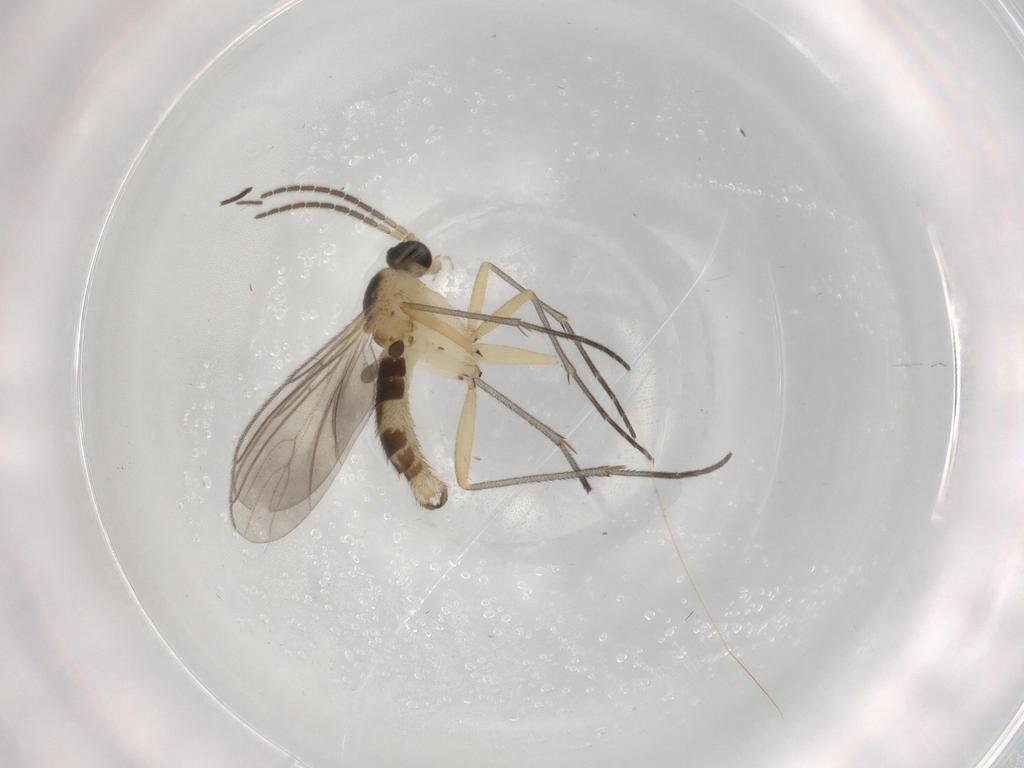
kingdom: Animalia
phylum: Arthropoda
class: Insecta
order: Diptera
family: Sciaridae
